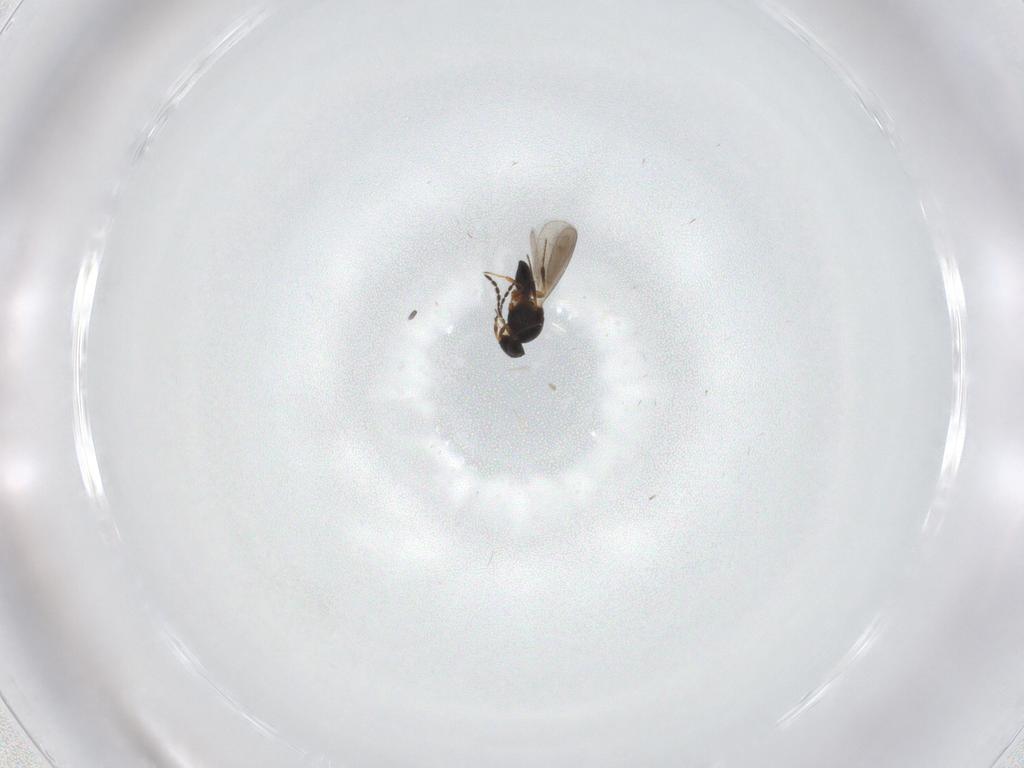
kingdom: Animalia
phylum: Arthropoda
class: Insecta
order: Hymenoptera
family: Platygastridae
